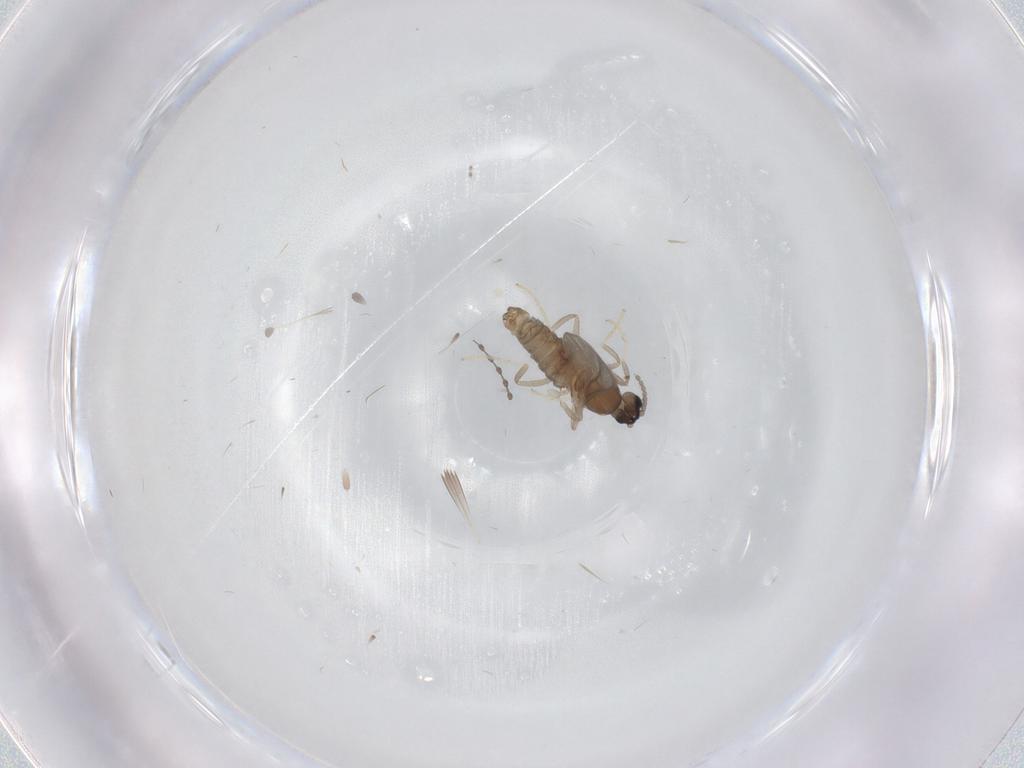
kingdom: Animalia
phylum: Arthropoda
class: Insecta
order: Diptera
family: Cecidomyiidae
